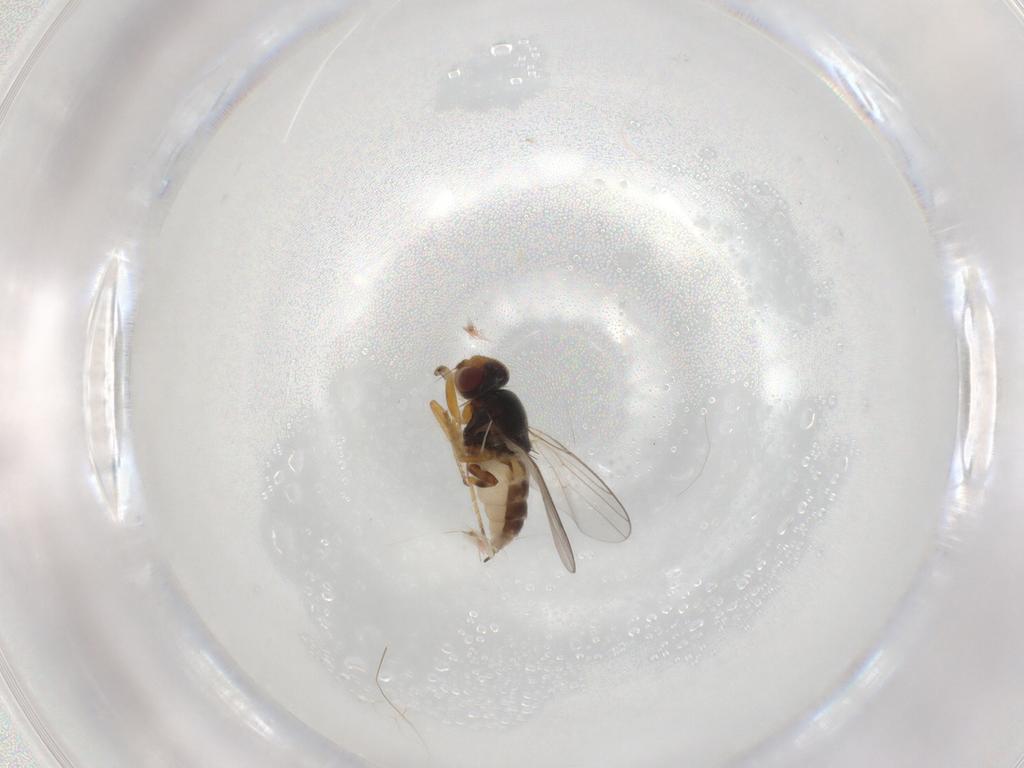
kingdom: Animalia
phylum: Arthropoda
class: Insecta
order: Diptera
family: Chloropidae
